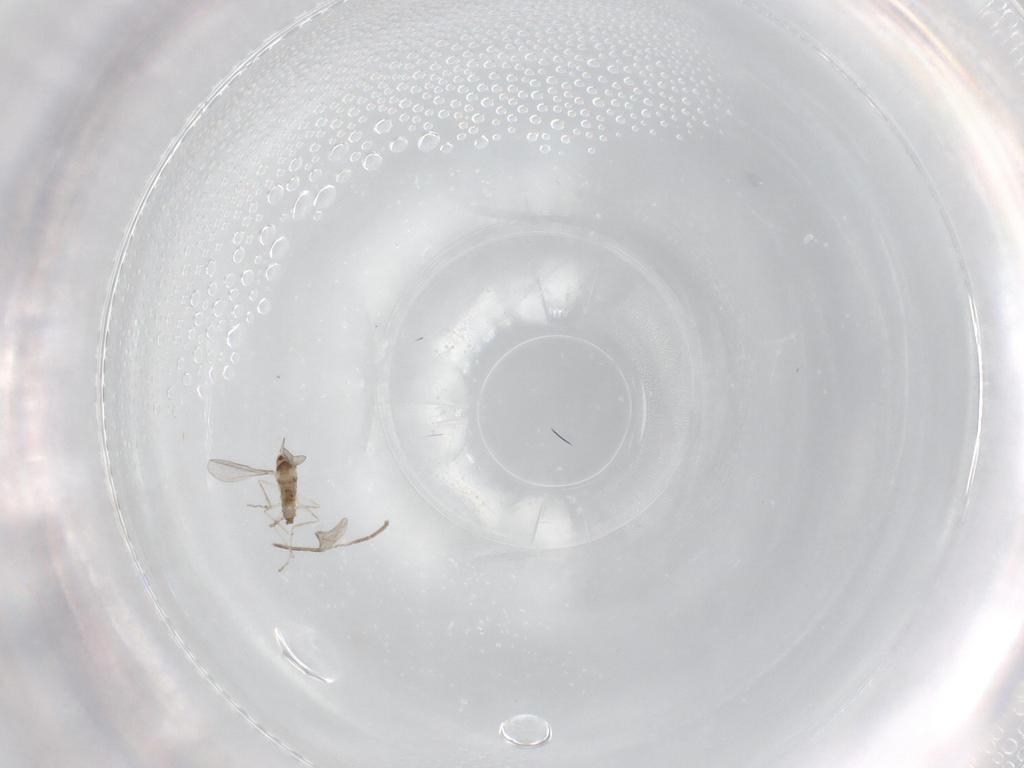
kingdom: Animalia
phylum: Arthropoda
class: Insecta
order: Diptera
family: Cecidomyiidae
